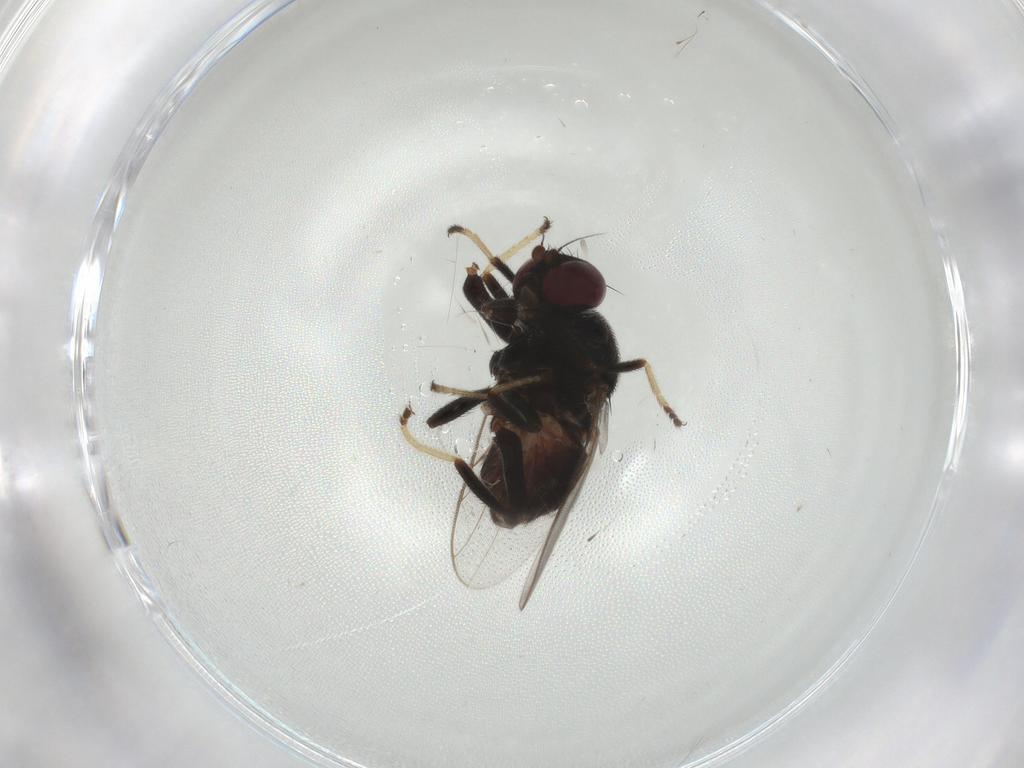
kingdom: Animalia
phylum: Arthropoda
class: Insecta
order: Diptera
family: Chloropidae
